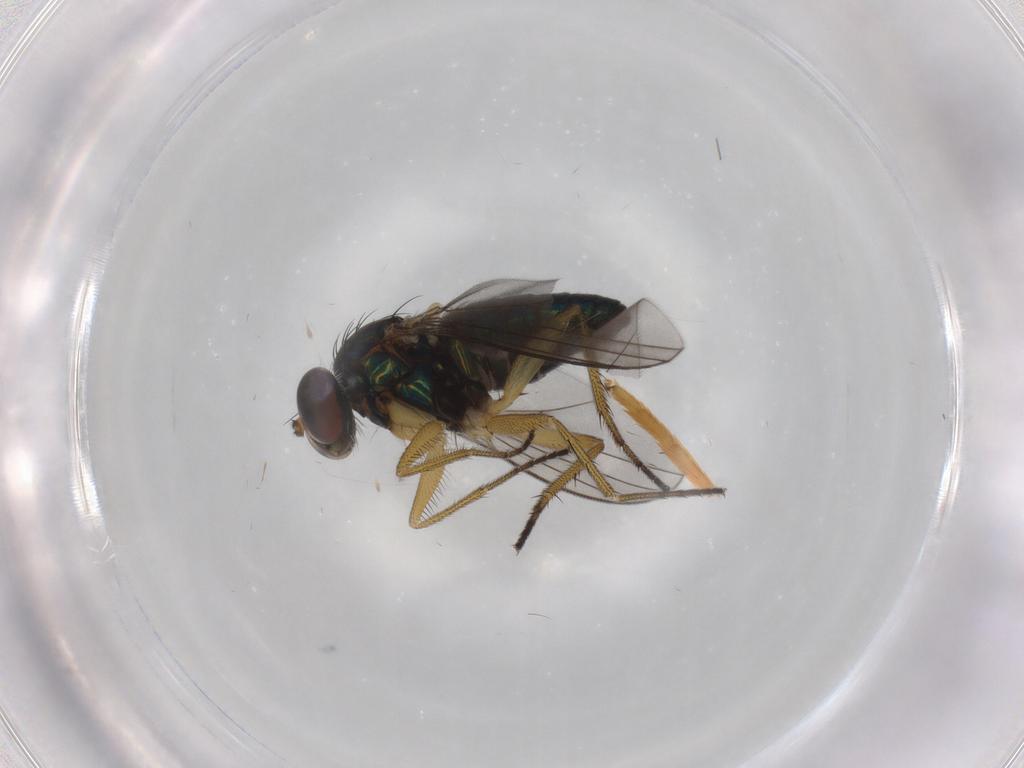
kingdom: Animalia
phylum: Arthropoda
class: Insecta
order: Diptera
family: Dolichopodidae
